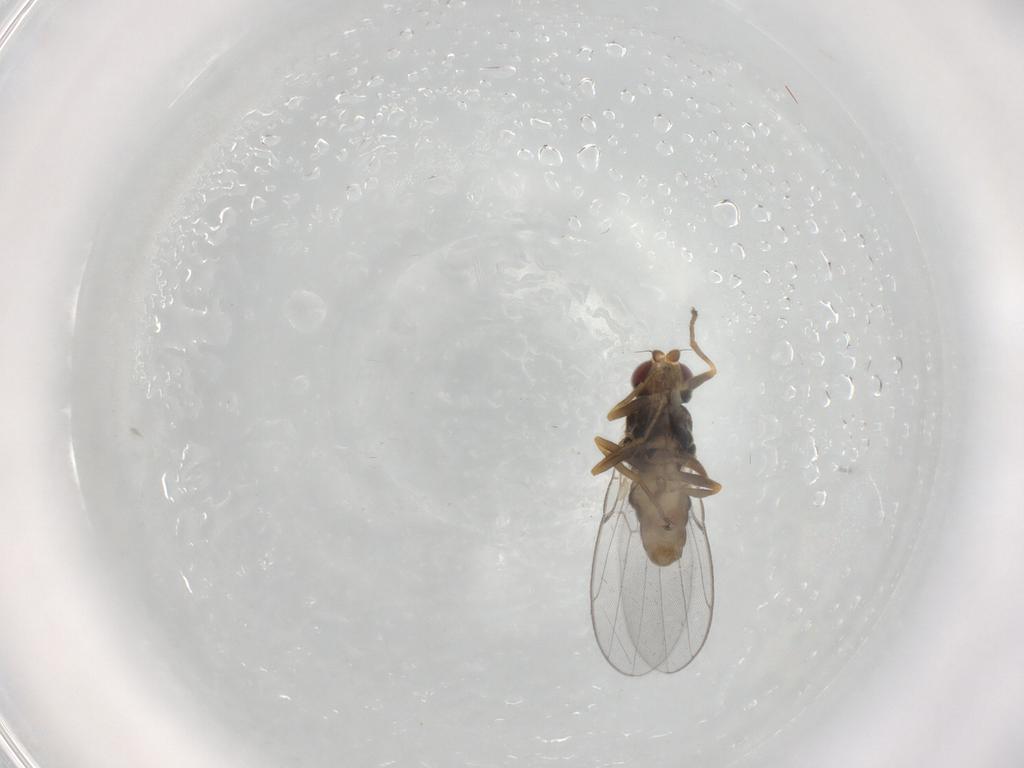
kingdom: Animalia
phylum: Arthropoda
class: Insecta
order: Diptera
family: Chloropidae
